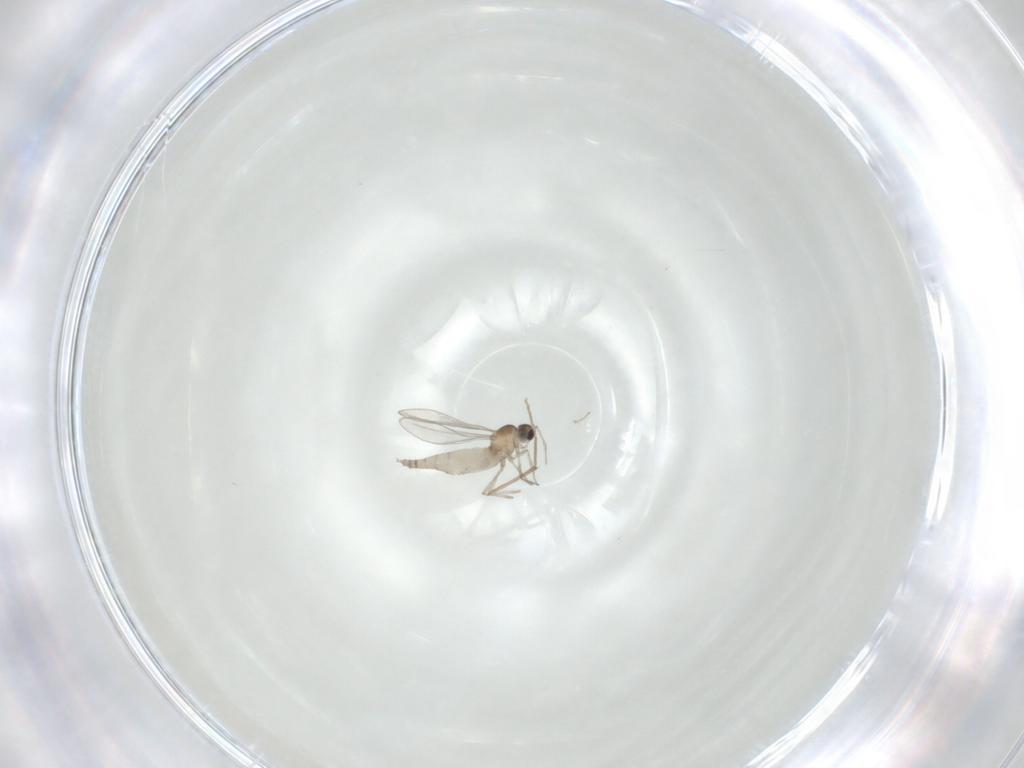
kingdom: Animalia
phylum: Arthropoda
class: Insecta
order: Diptera
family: Cecidomyiidae
